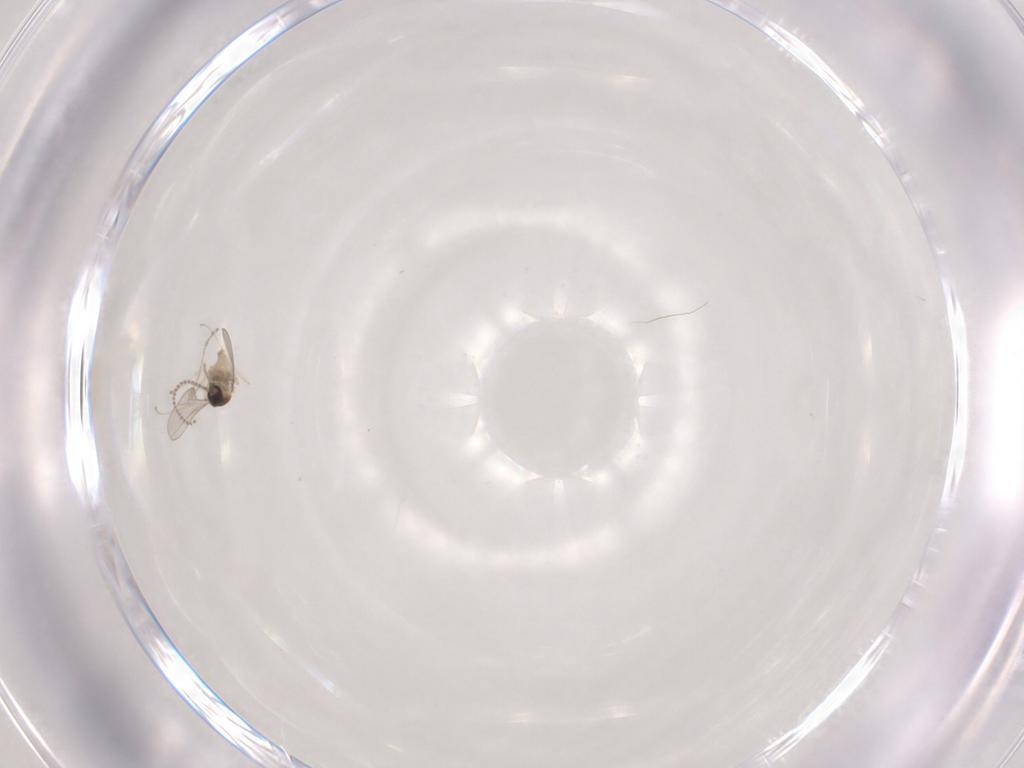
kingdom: Animalia
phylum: Arthropoda
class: Insecta
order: Diptera
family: Cecidomyiidae
